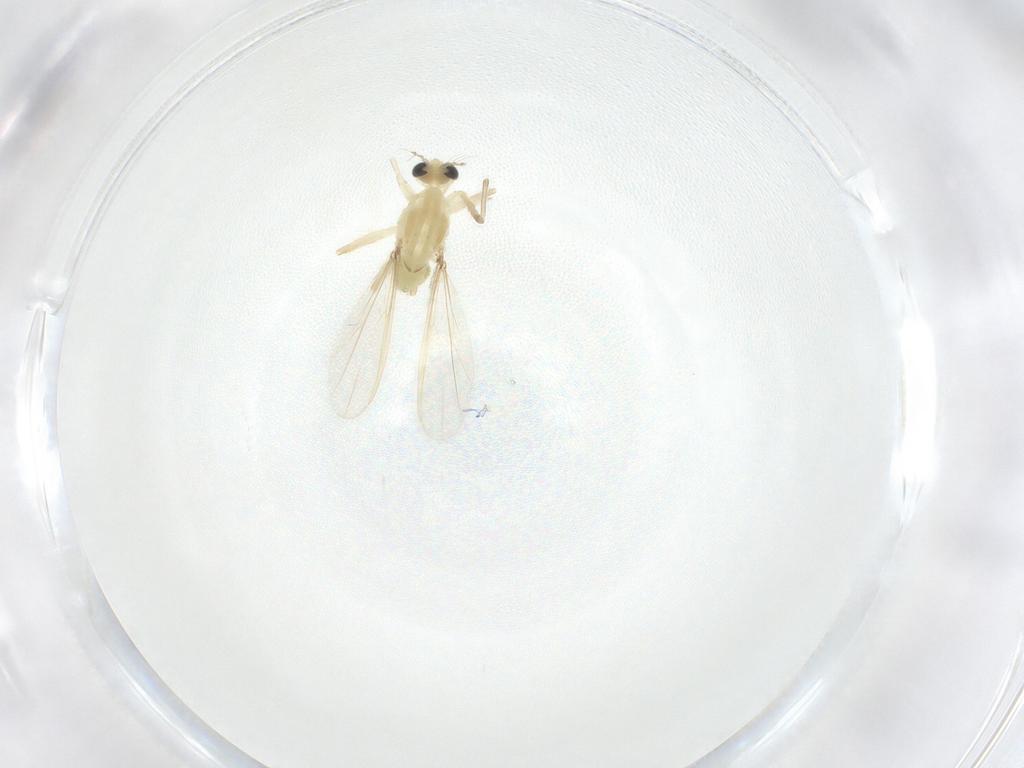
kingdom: Animalia
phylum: Arthropoda
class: Insecta
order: Diptera
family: Chironomidae
